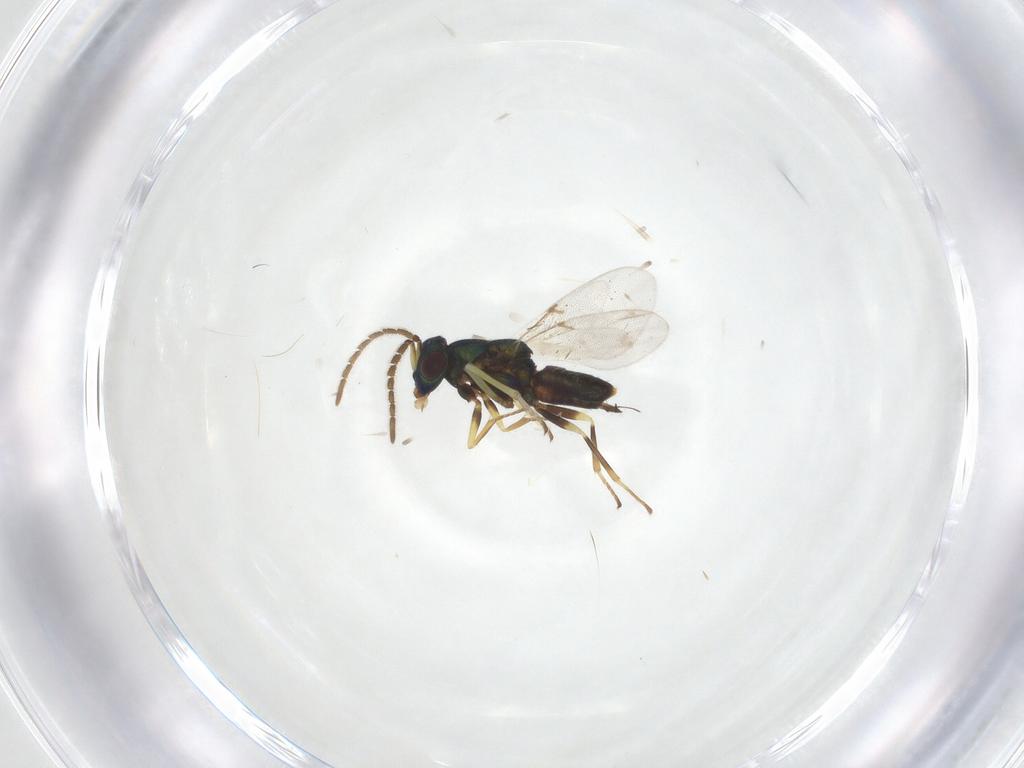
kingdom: Animalia
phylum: Arthropoda
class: Insecta
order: Hymenoptera
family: Encyrtidae
